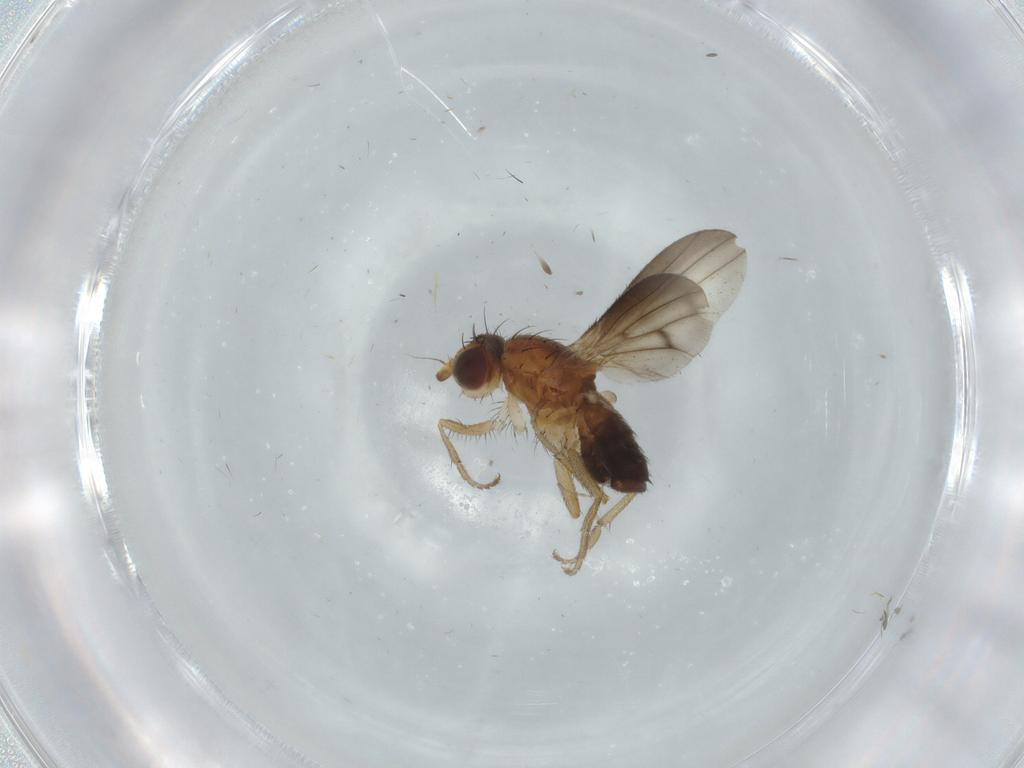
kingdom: Animalia
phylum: Arthropoda
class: Insecta
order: Diptera
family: Heleomyzidae
